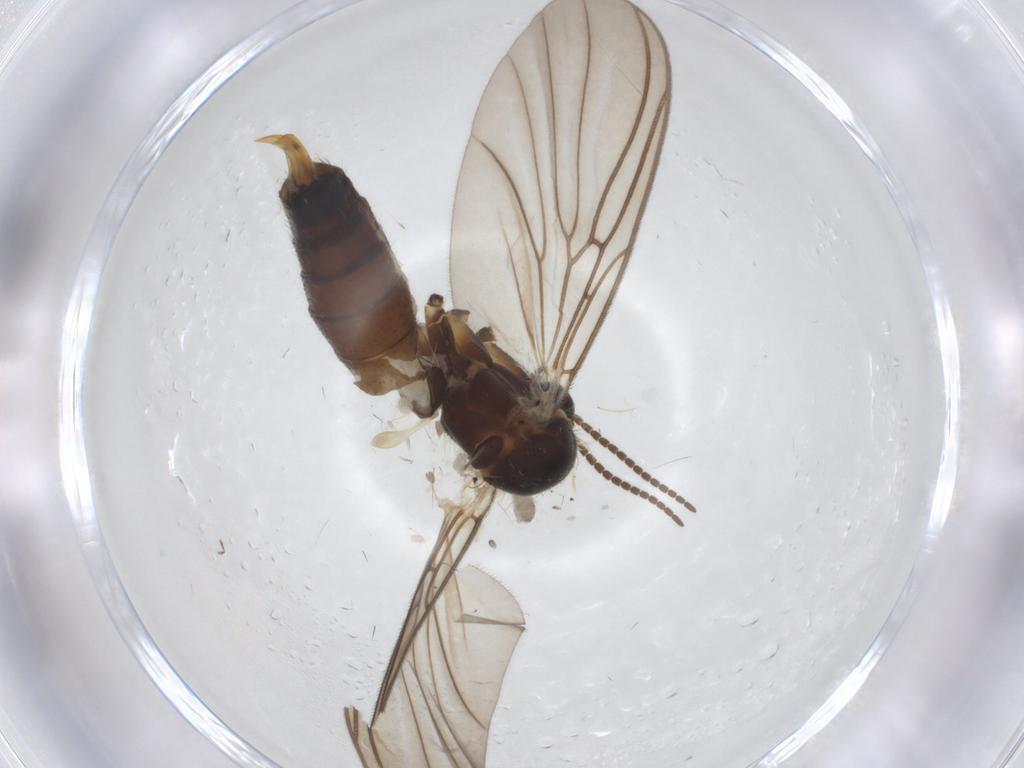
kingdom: Animalia
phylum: Arthropoda
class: Insecta
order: Diptera
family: Mycetophilidae
